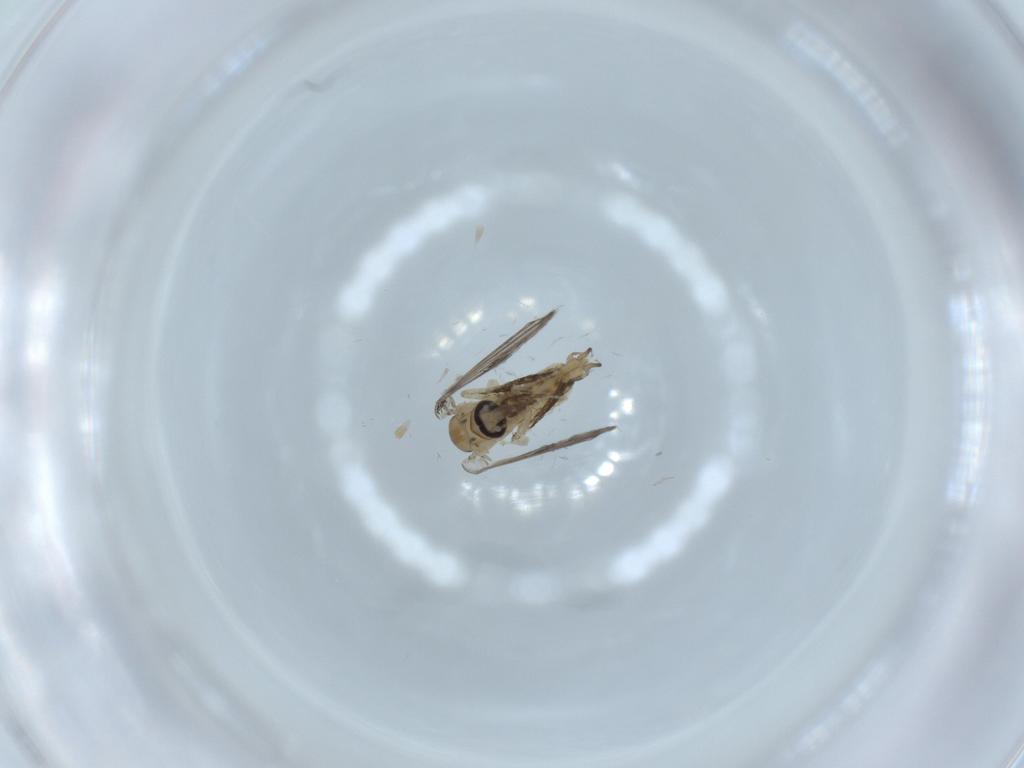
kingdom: Animalia
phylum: Arthropoda
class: Insecta
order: Diptera
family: Psychodidae
